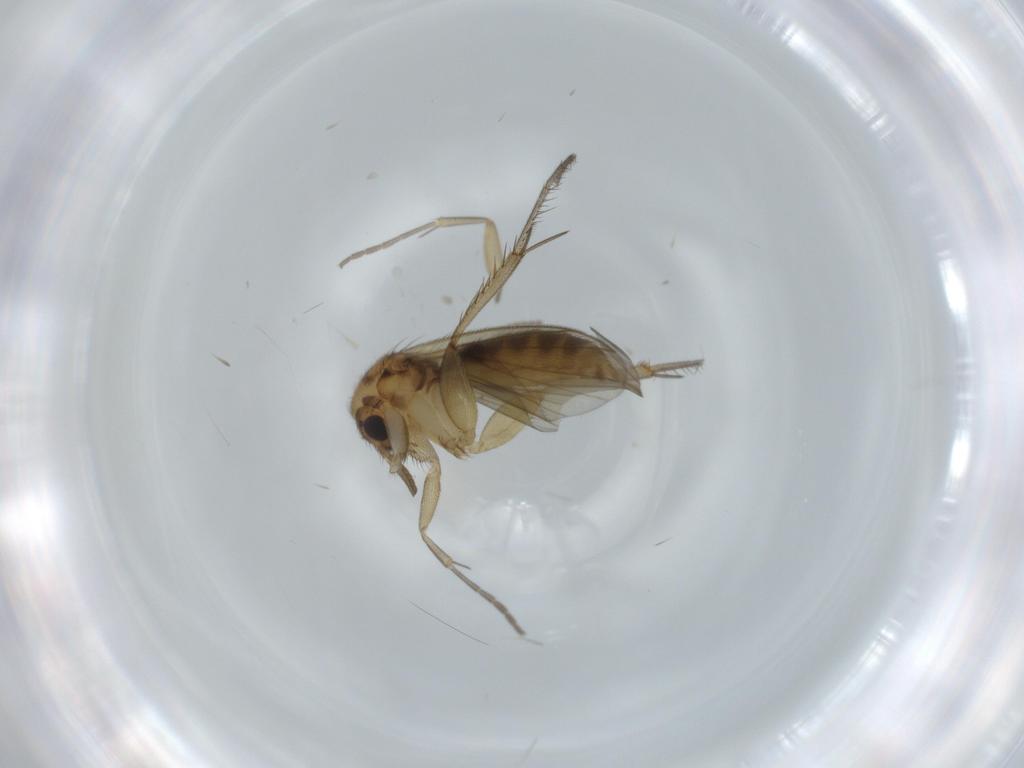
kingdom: Animalia
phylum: Arthropoda
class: Insecta
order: Diptera
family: Mycetophilidae
